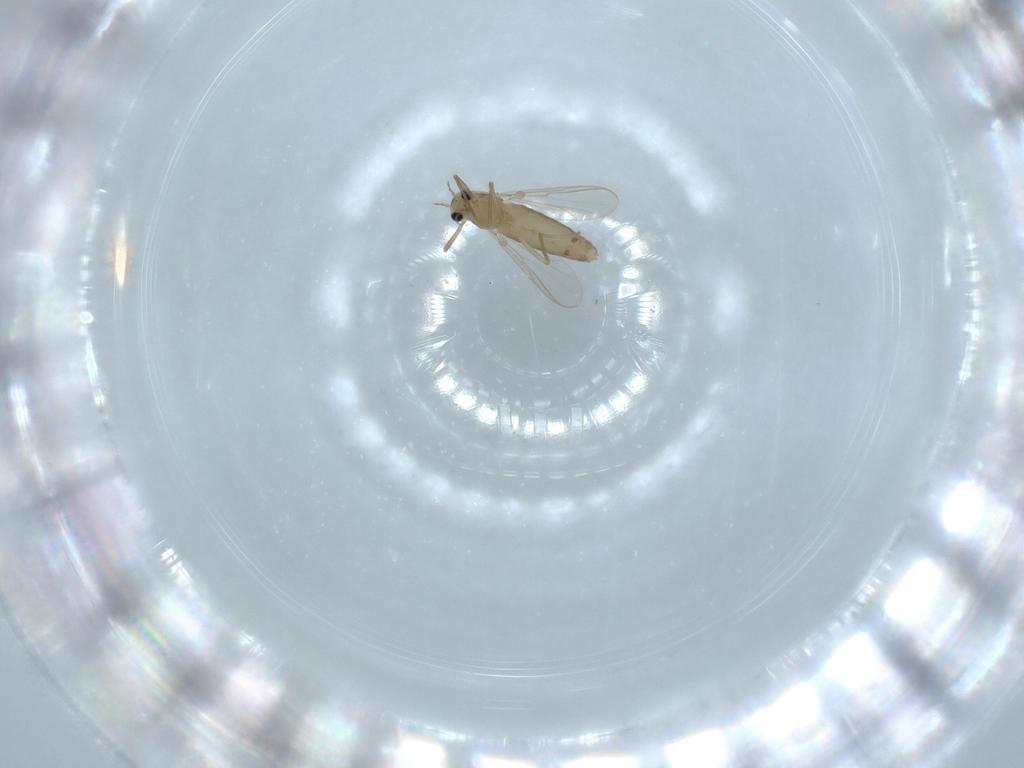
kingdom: Animalia
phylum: Arthropoda
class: Insecta
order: Diptera
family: Chironomidae
